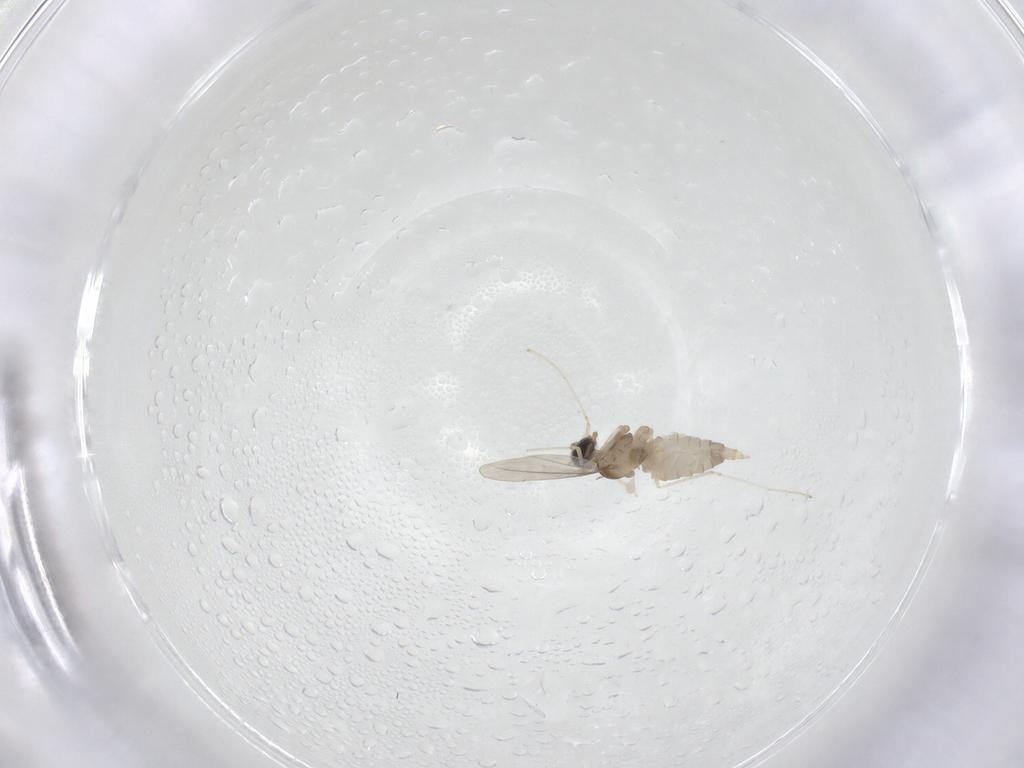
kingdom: Animalia
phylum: Arthropoda
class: Insecta
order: Diptera
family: Cecidomyiidae
